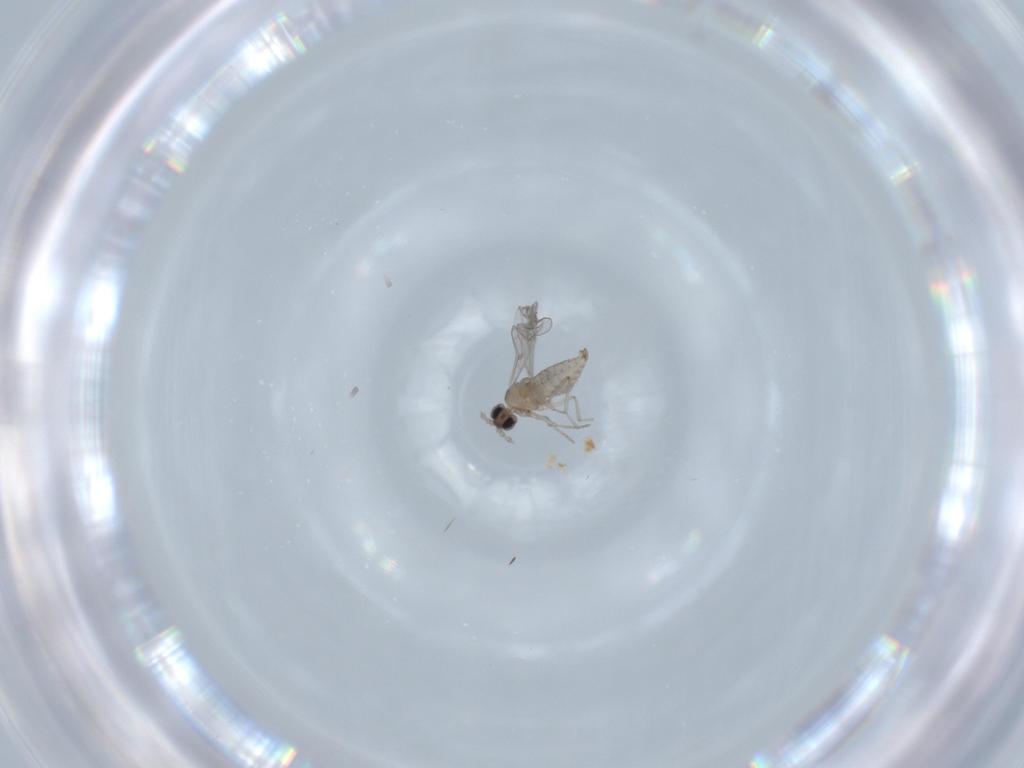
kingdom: Animalia
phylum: Arthropoda
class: Insecta
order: Diptera
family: Cecidomyiidae
